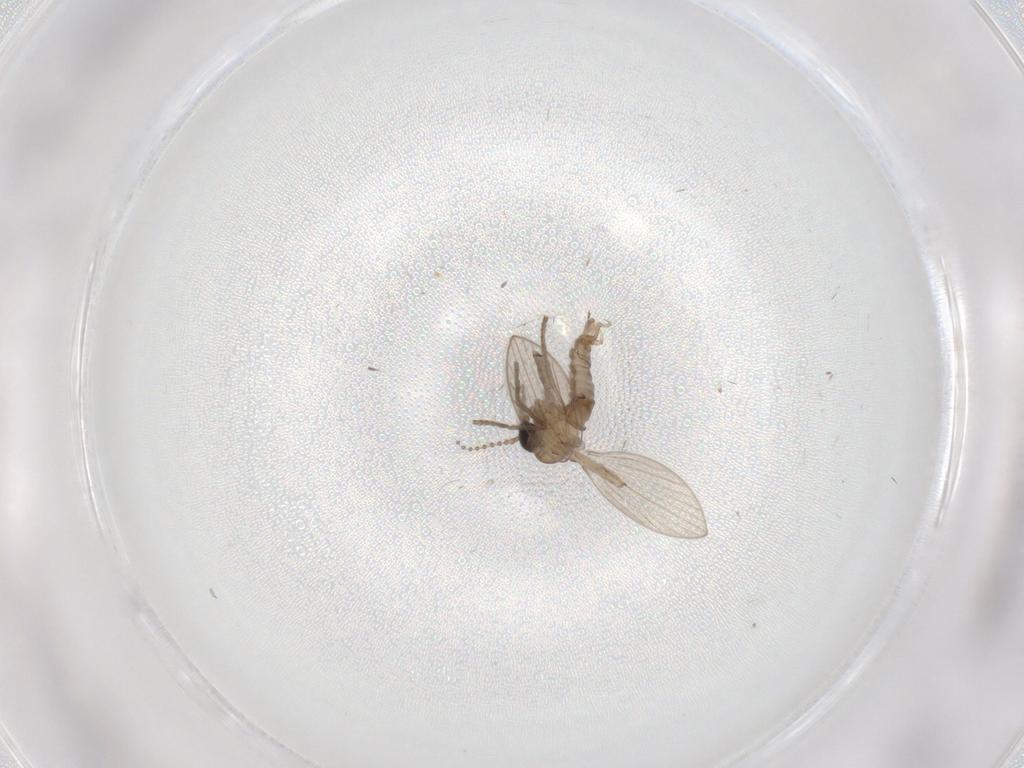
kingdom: Animalia
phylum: Arthropoda
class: Insecta
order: Diptera
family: Psychodidae
